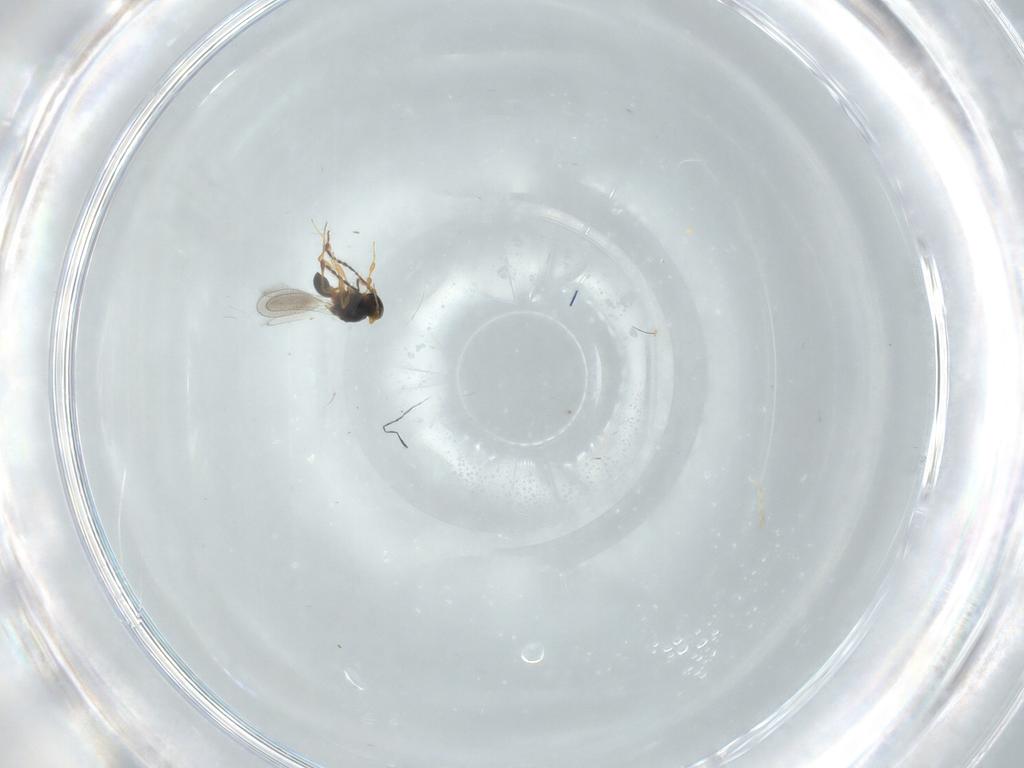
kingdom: Animalia
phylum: Arthropoda
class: Insecta
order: Hymenoptera
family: Platygastridae
